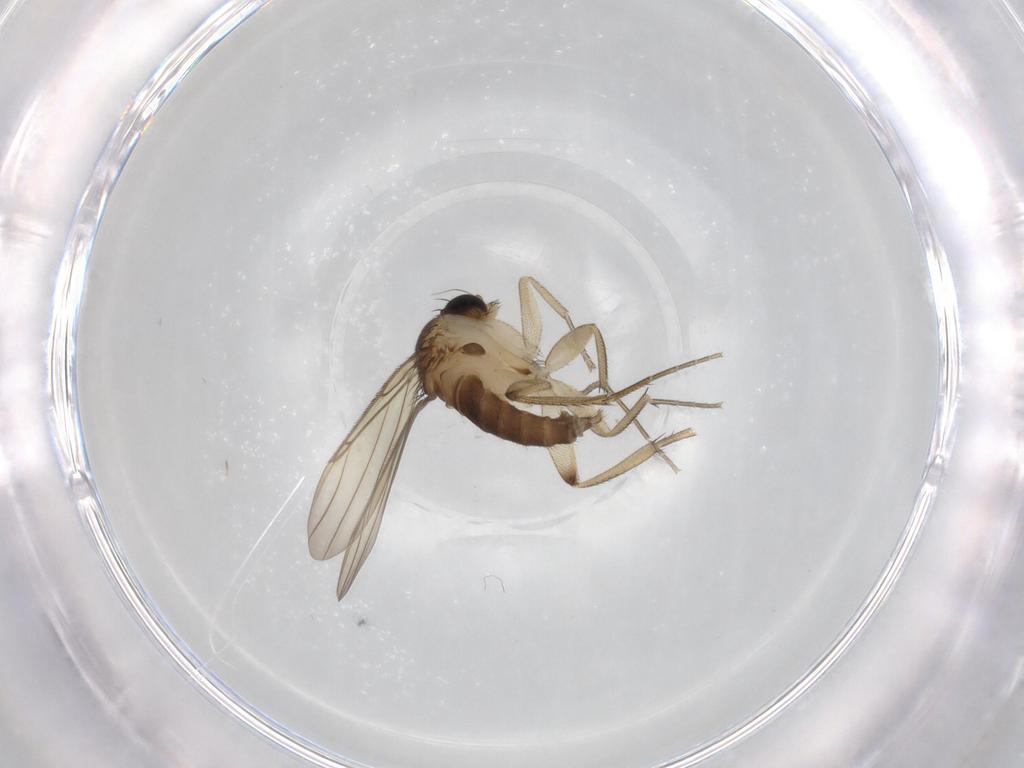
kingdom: Animalia
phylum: Arthropoda
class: Insecta
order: Diptera
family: Phoridae
